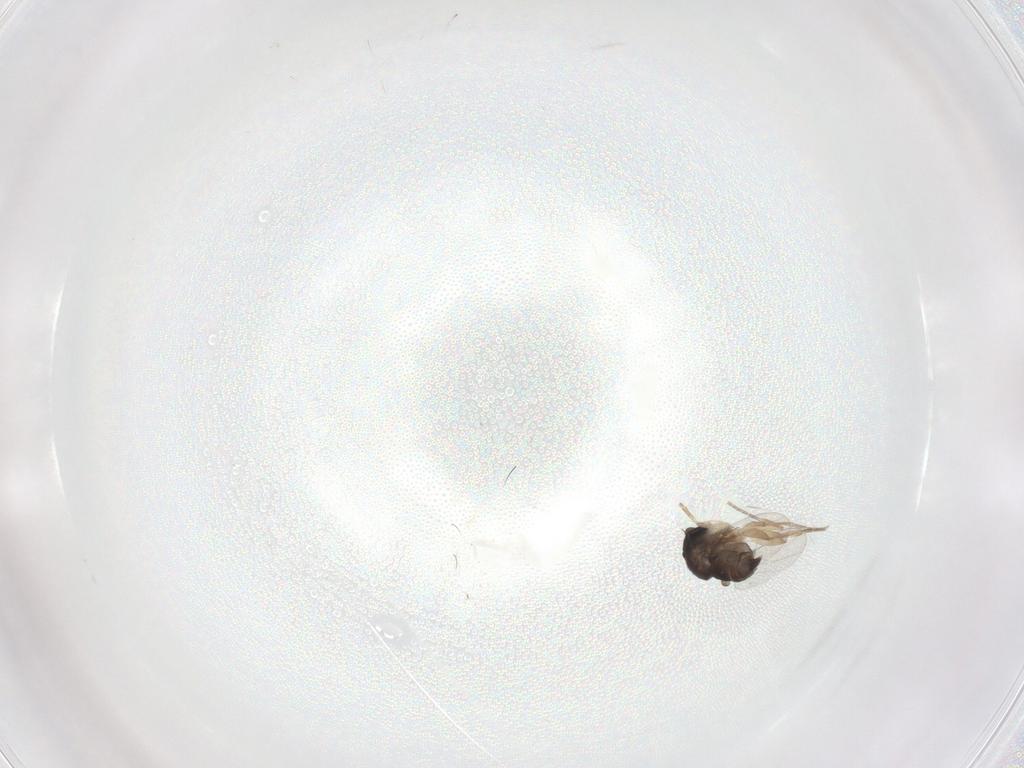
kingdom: Animalia
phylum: Arthropoda
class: Insecta
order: Diptera
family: Phoridae
